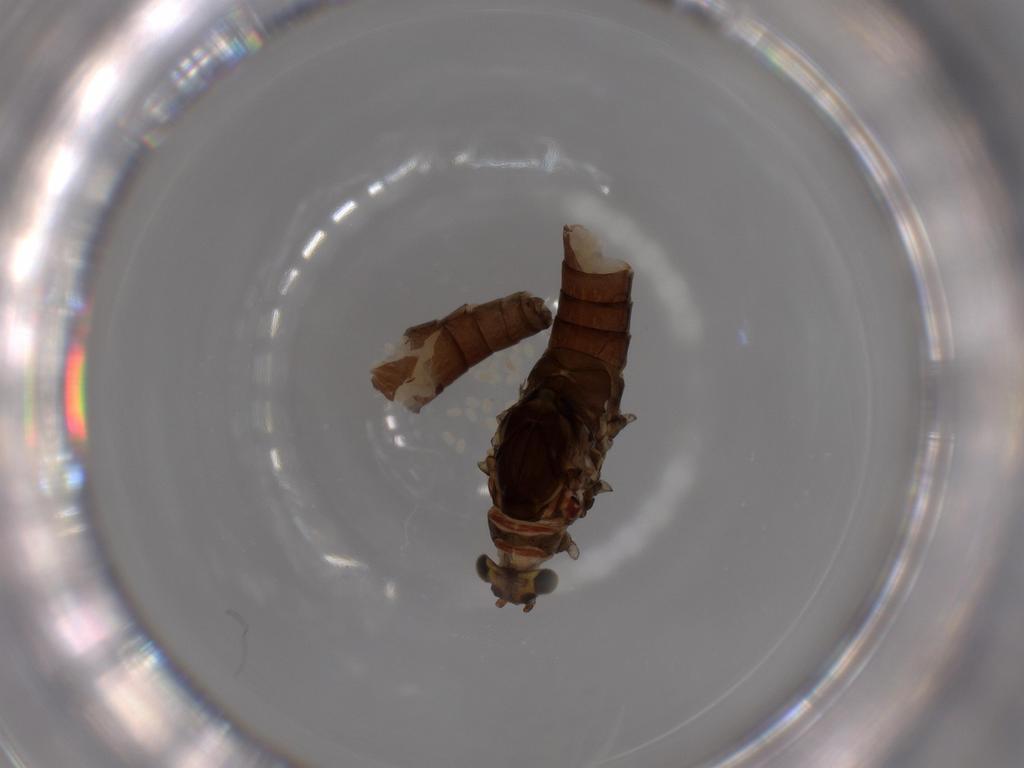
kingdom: Animalia
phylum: Arthropoda
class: Insecta
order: Ephemeroptera
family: Baetidae
